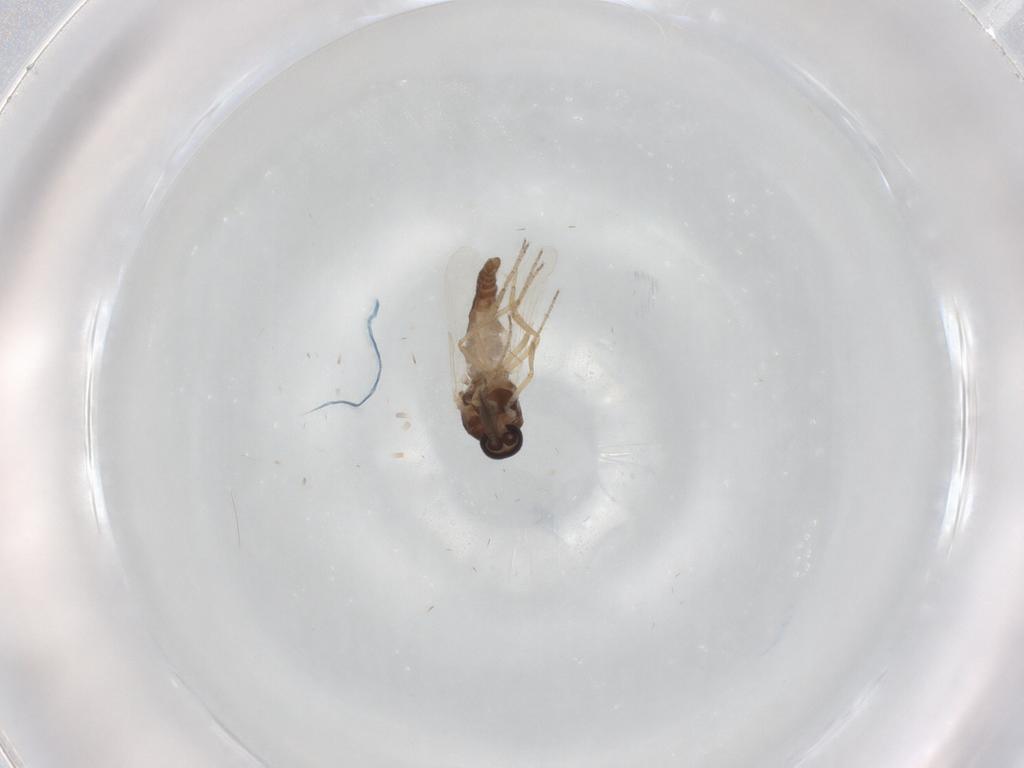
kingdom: Animalia
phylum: Arthropoda
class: Insecta
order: Diptera
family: Ceratopogonidae
